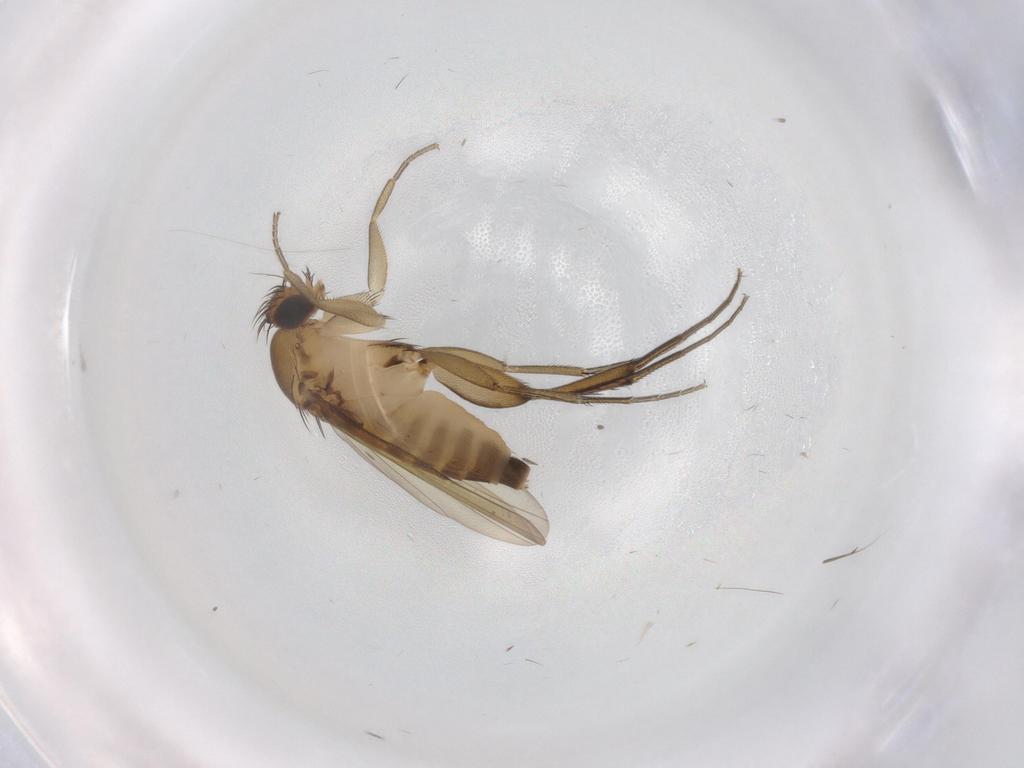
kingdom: Animalia
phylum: Arthropoda
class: Insecta
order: Diptera
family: Phoridae
